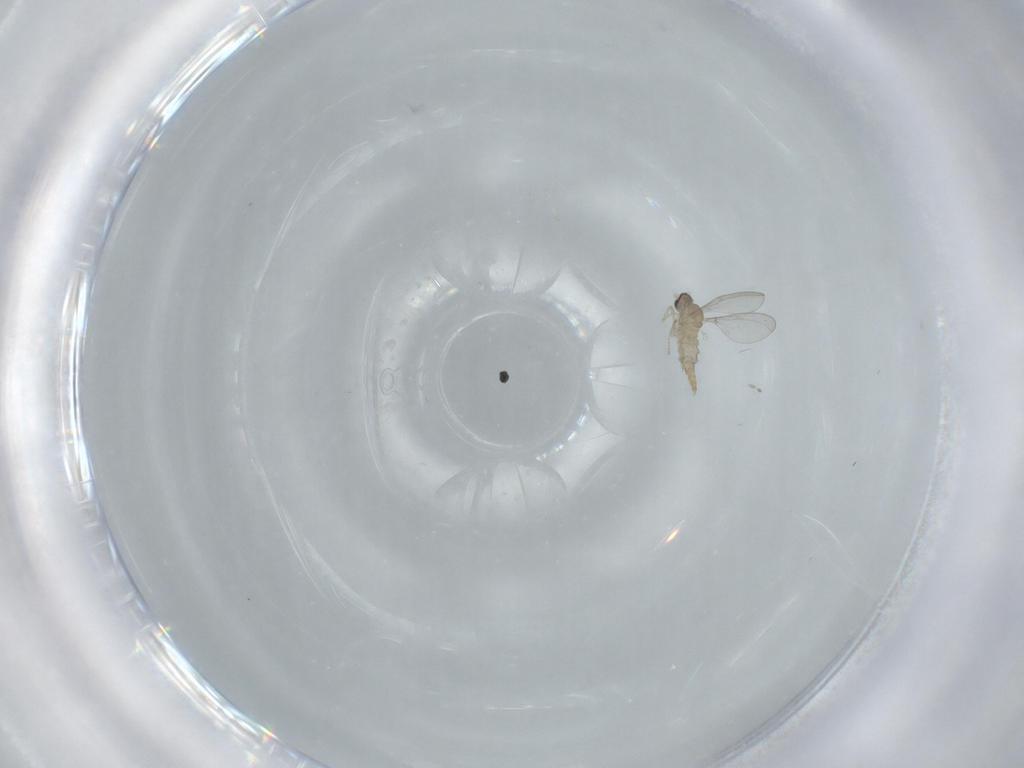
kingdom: Animalia
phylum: Arthropoda
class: Insecta
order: Diptera
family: Cecidomyiidae
